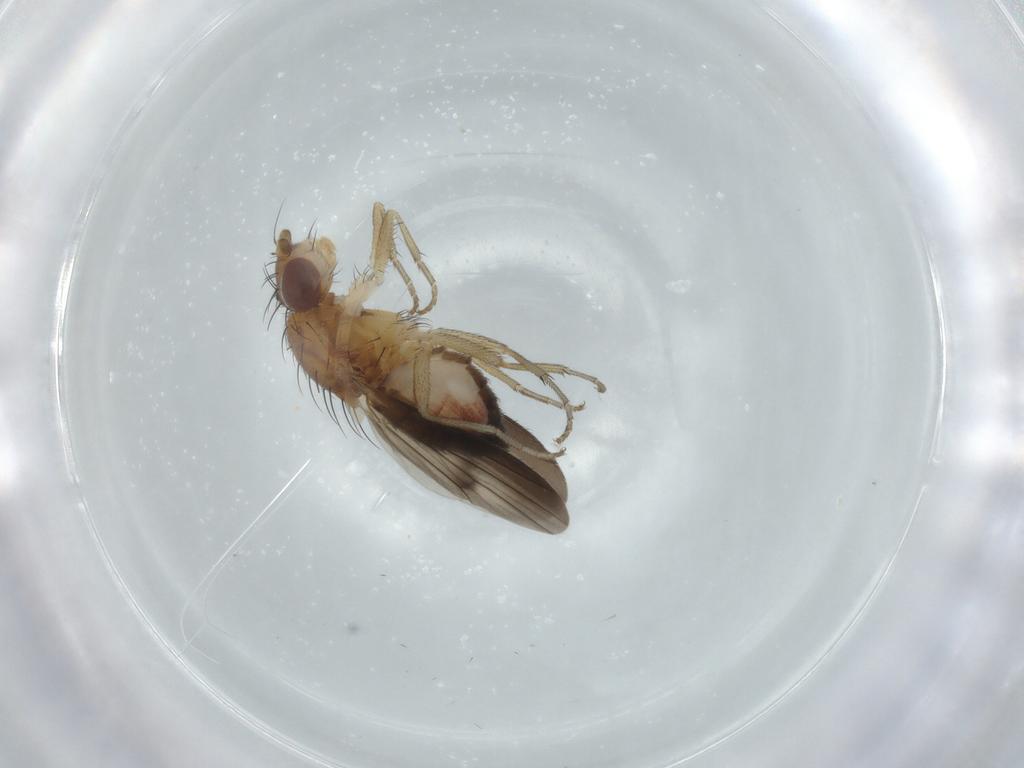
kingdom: Animalia
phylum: Arthropoda
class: Insecta
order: Diptera
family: Heleomyzidae
